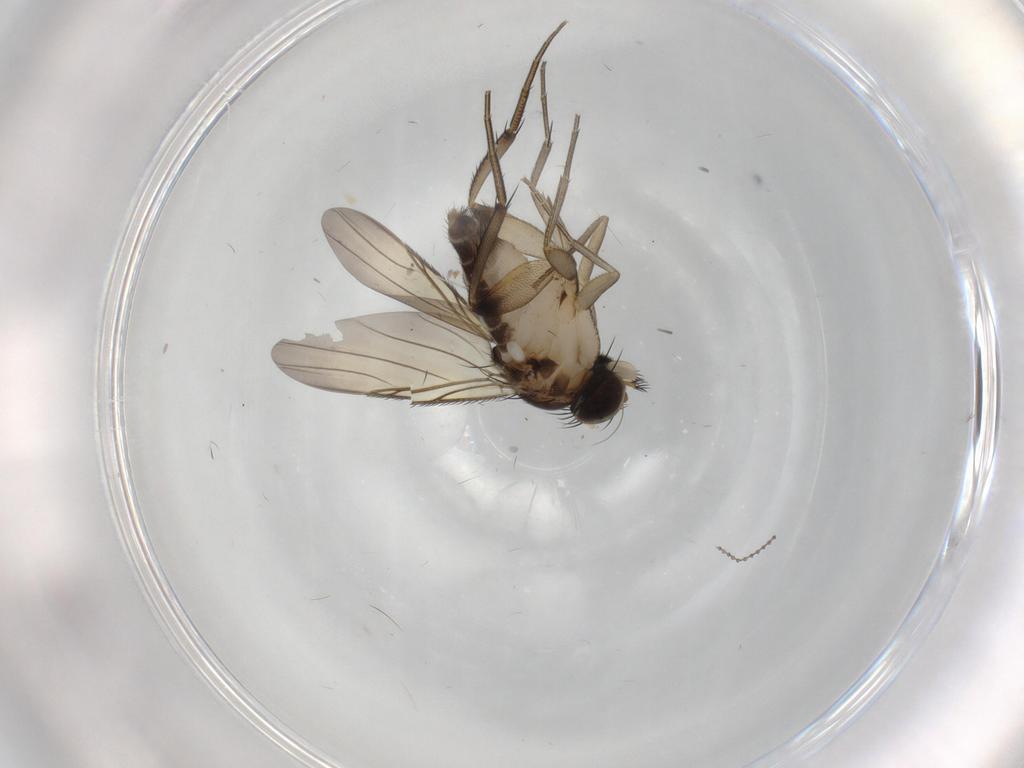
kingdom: Animalia
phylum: Arthropoda
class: Insecta
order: Diptera
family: Phoridae
